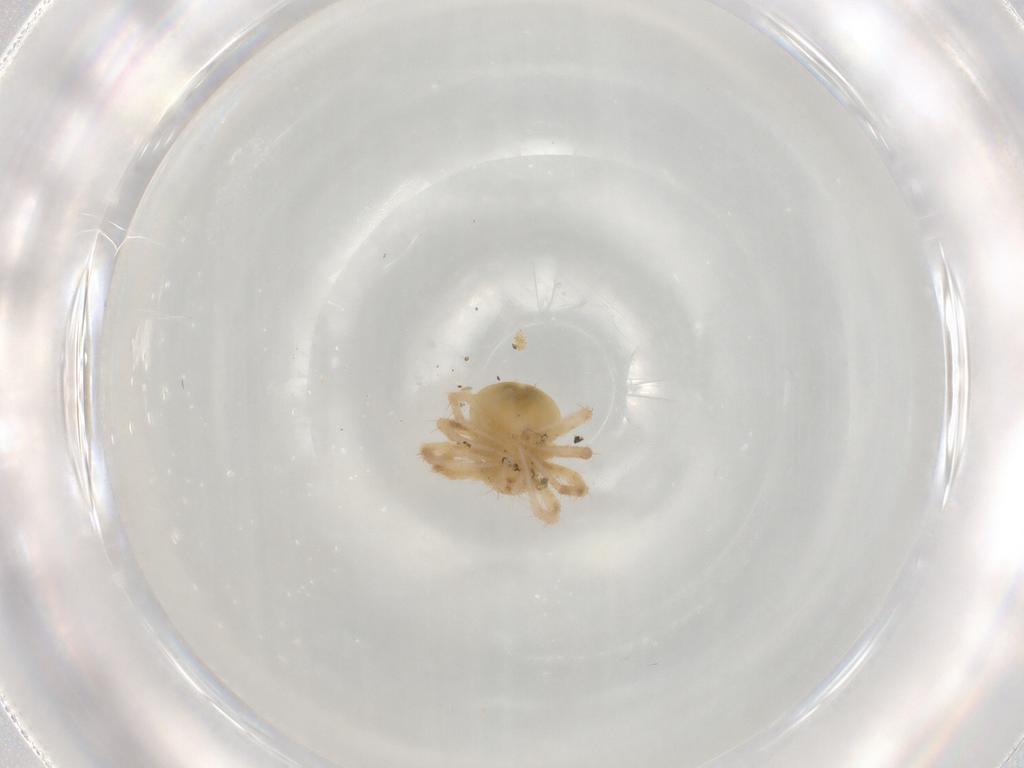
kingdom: Animalia
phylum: Arthropoda
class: Arachnida
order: Trombidiformes
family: Anystidae
